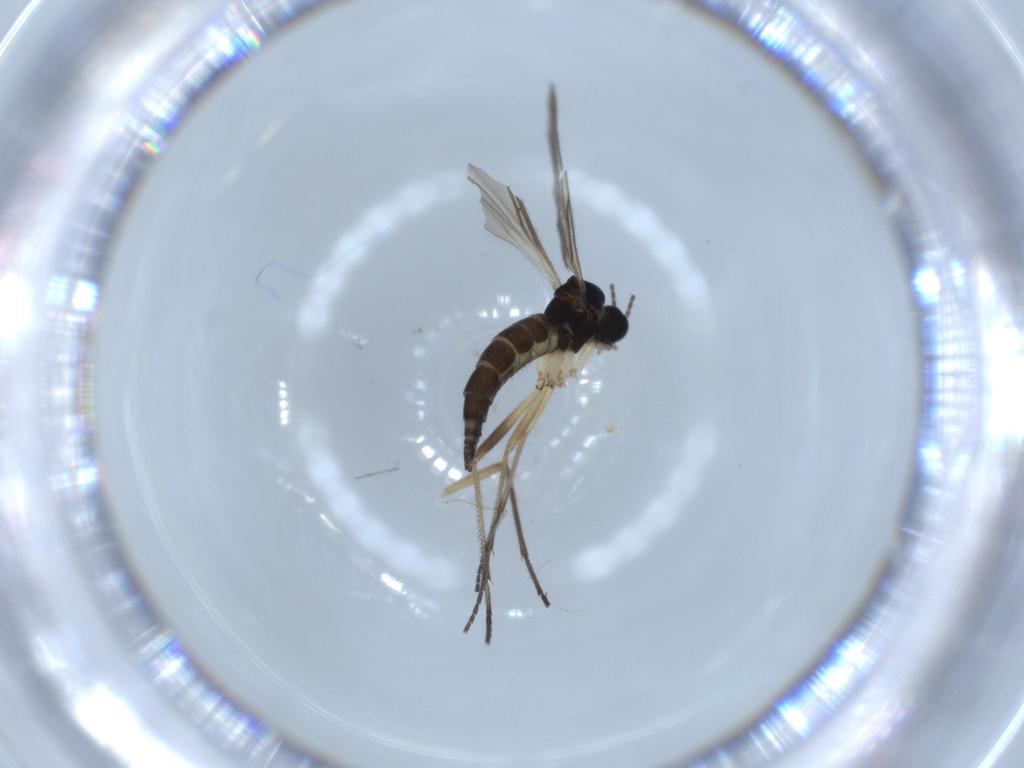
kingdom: Animalia
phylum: Arthropoda
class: Insecta
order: Diptera
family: Sciaridae
